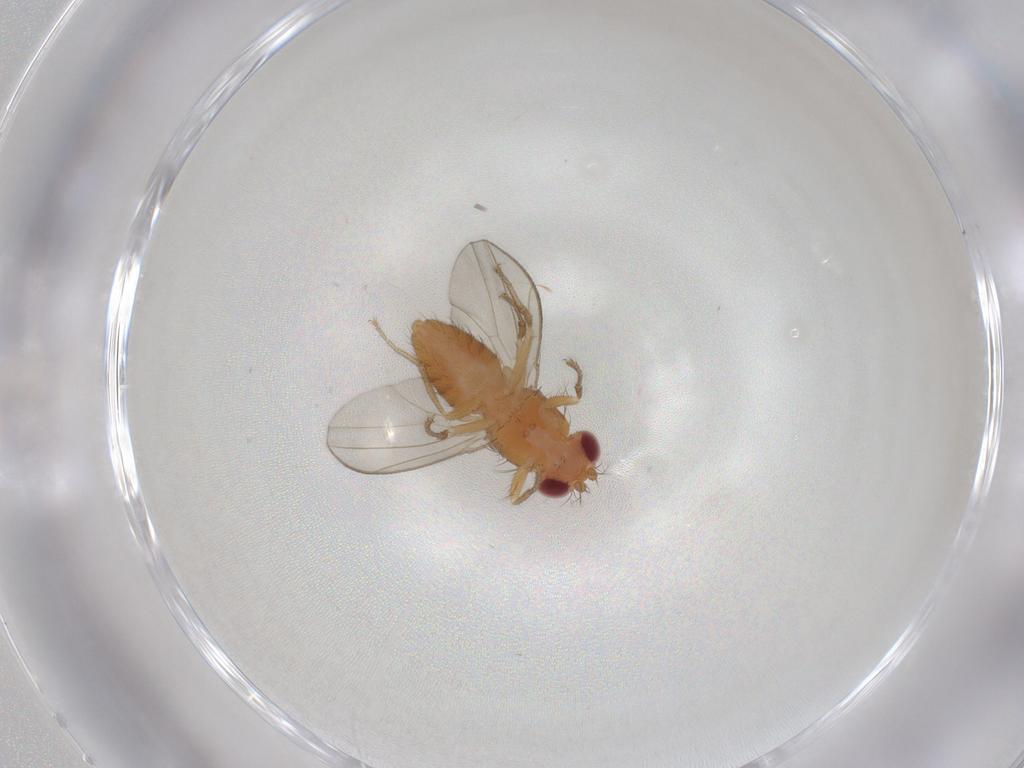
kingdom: Animalia
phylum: Arthropoda
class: Insecta
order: Diptera
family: Drosophilidae
